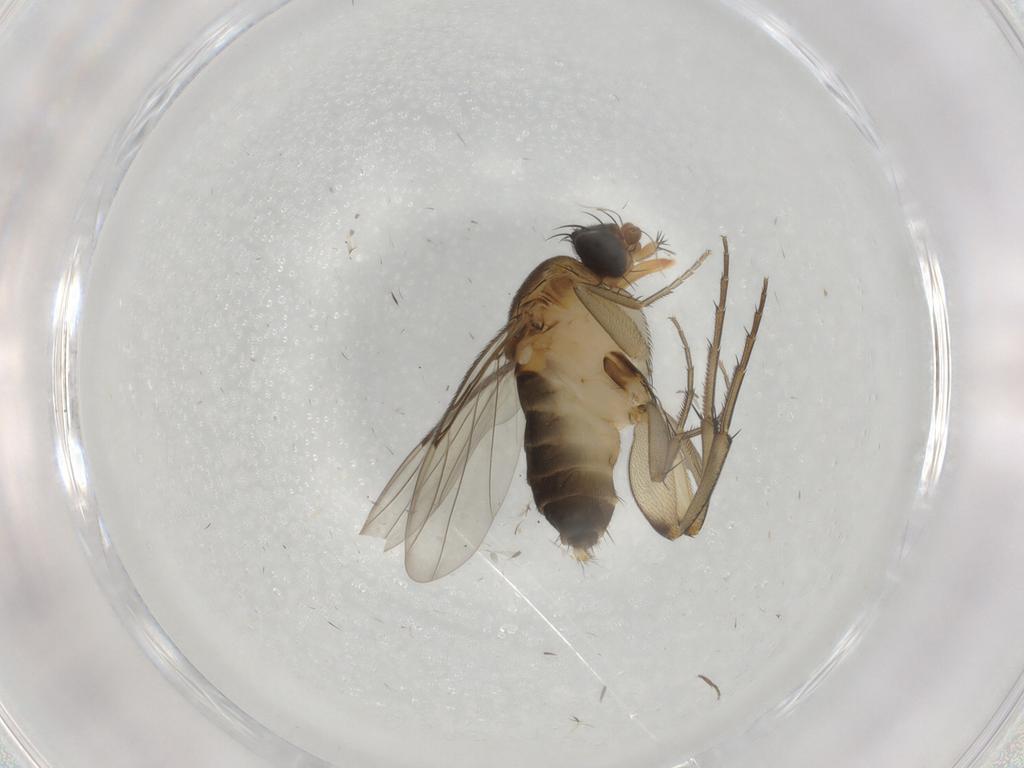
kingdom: Animalia
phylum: Arthropoda
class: Insecta
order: Diptera
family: Phoridae
